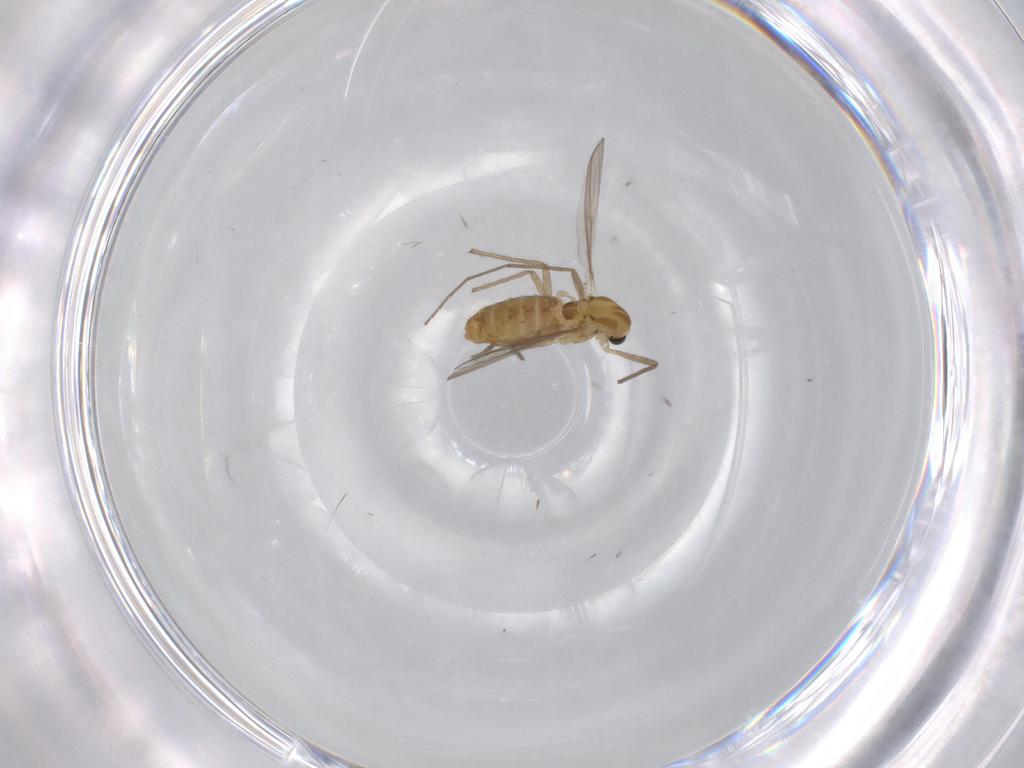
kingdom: Animalia
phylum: Arthropoda
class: Insecta
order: Diptera
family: Chironomidae
